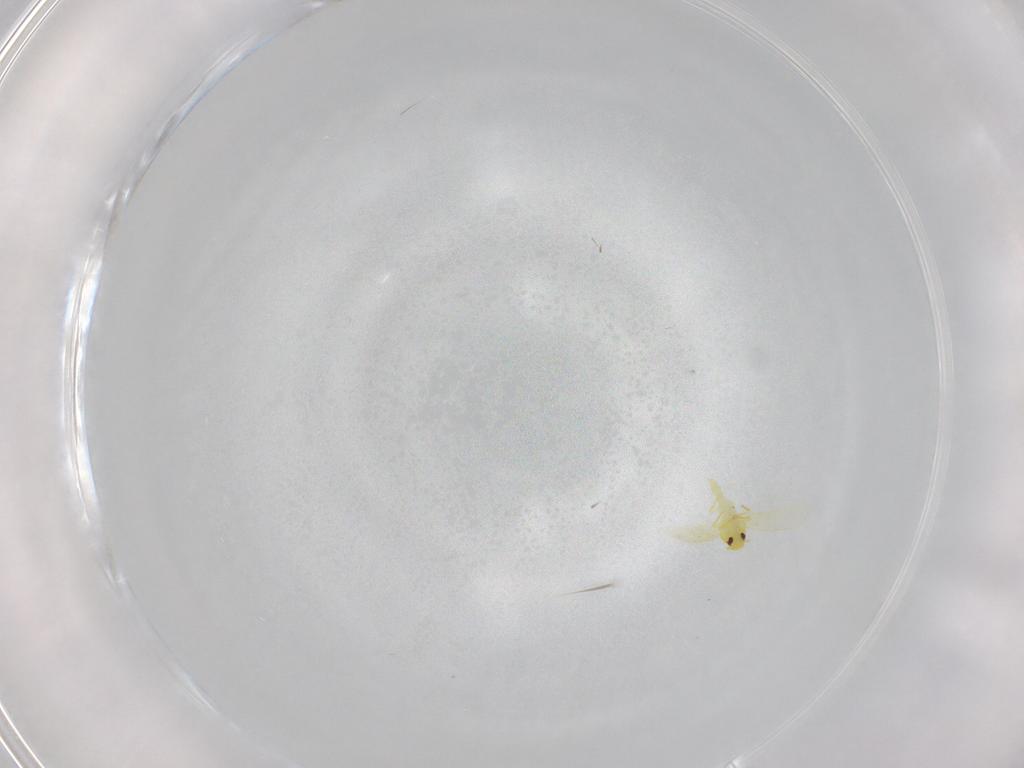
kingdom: Animalia
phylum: Arthropoda
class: Insecta
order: Hemiptera
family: Aleyrodidae
